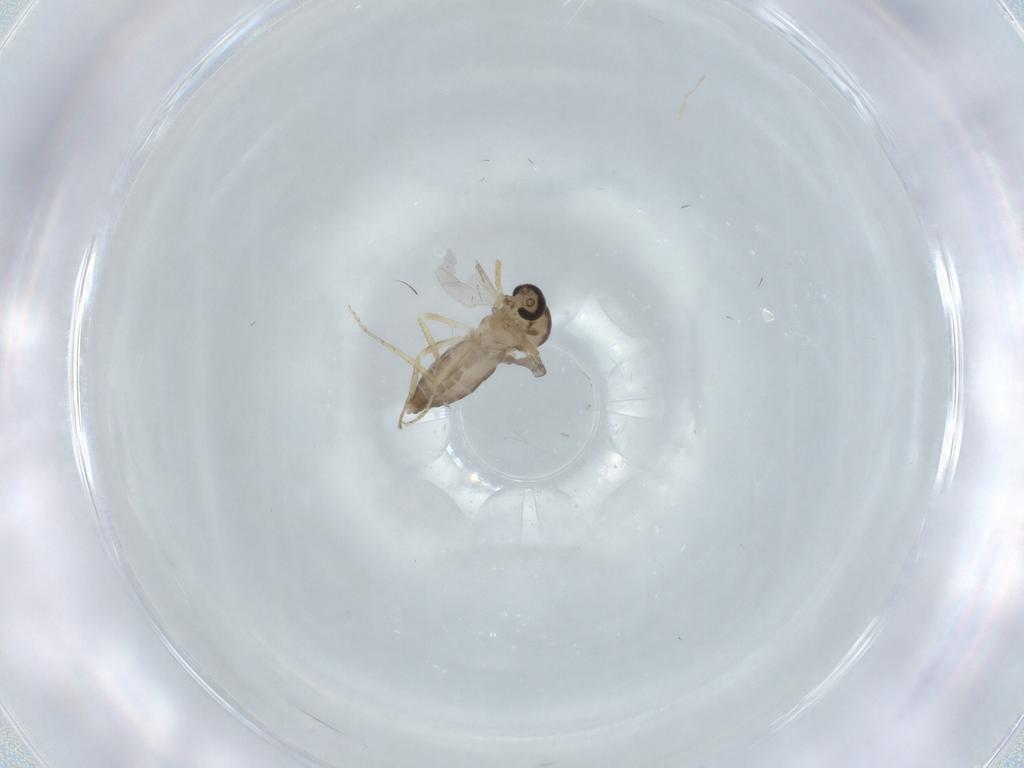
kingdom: Animalia
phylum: Arthropoda
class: Insecta
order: Diptera
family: Ceratopogonidae
